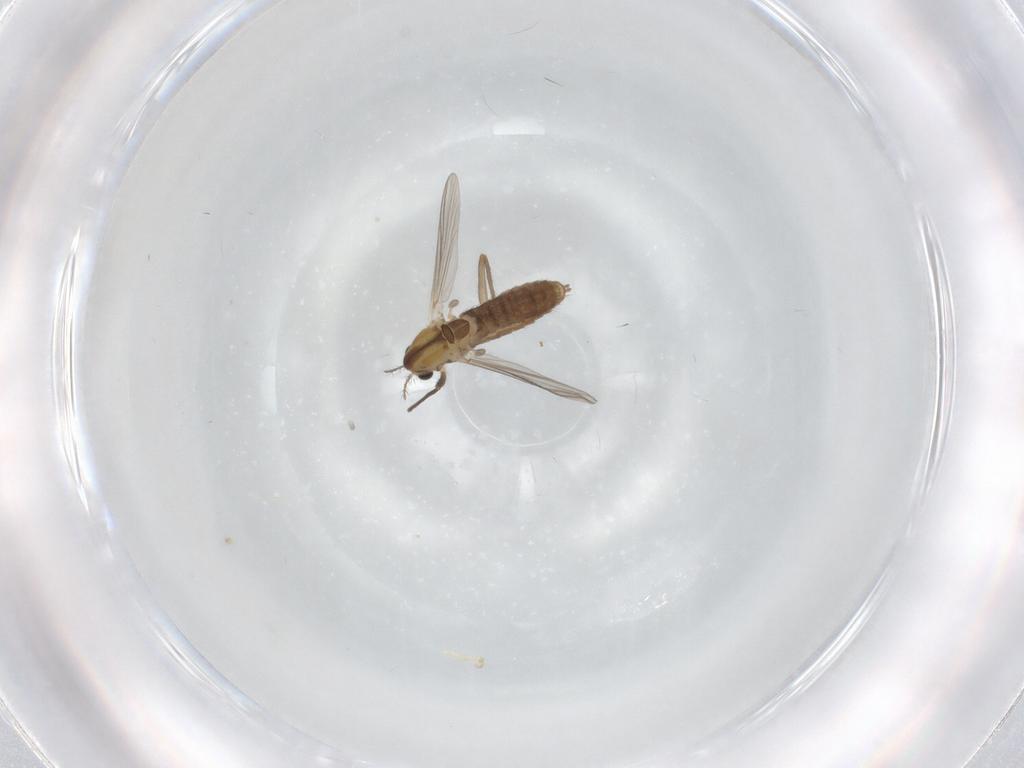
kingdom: Animalia
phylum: Arthropoda
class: Insecta
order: Diptera
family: Chironomidae
